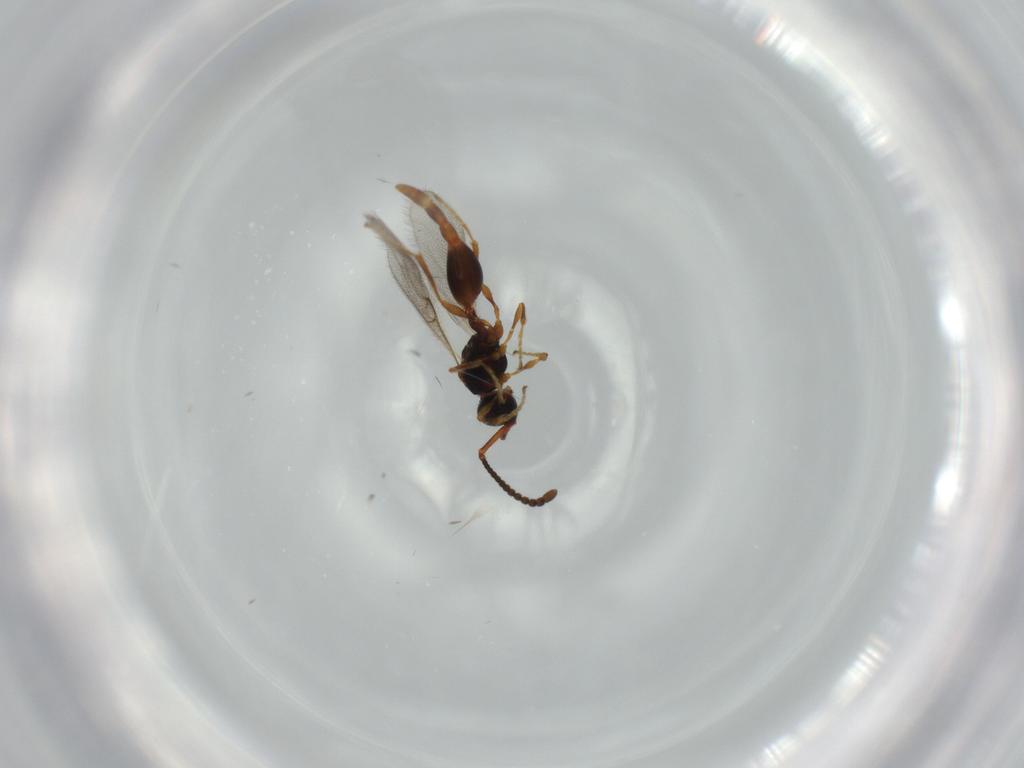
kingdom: Animalia
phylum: Arthropoda
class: Insecta
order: Hymenoptera
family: Diapriidae
